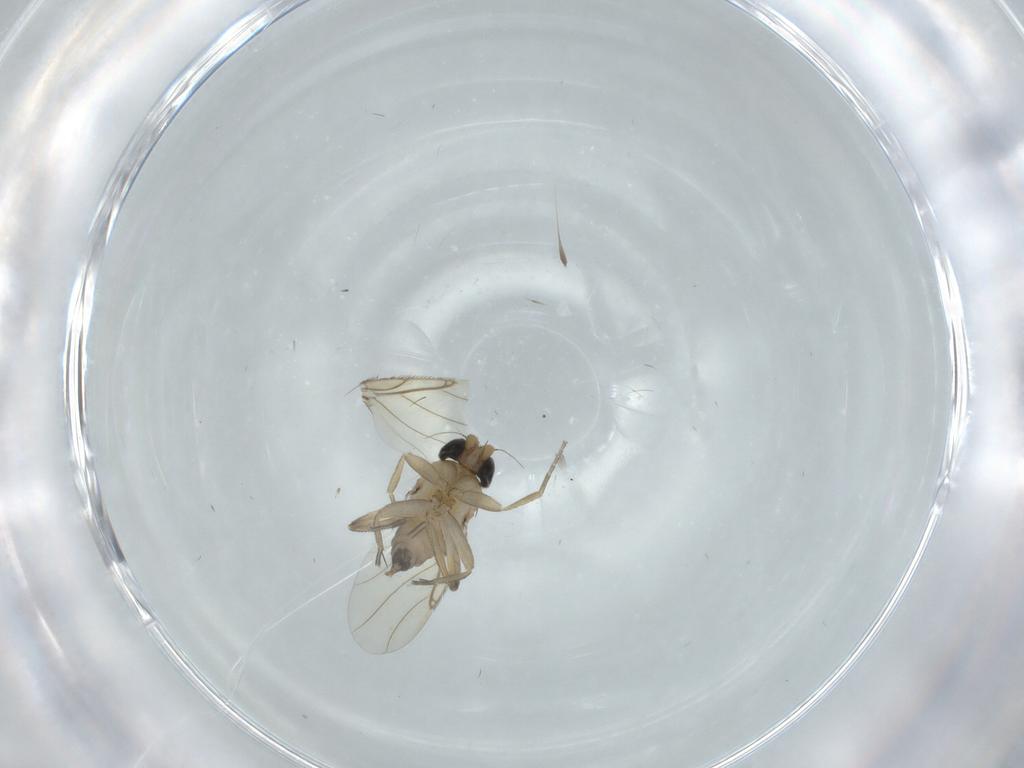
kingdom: Animalia
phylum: Arthropoda
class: Insecta
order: Diptera
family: Phoridae
